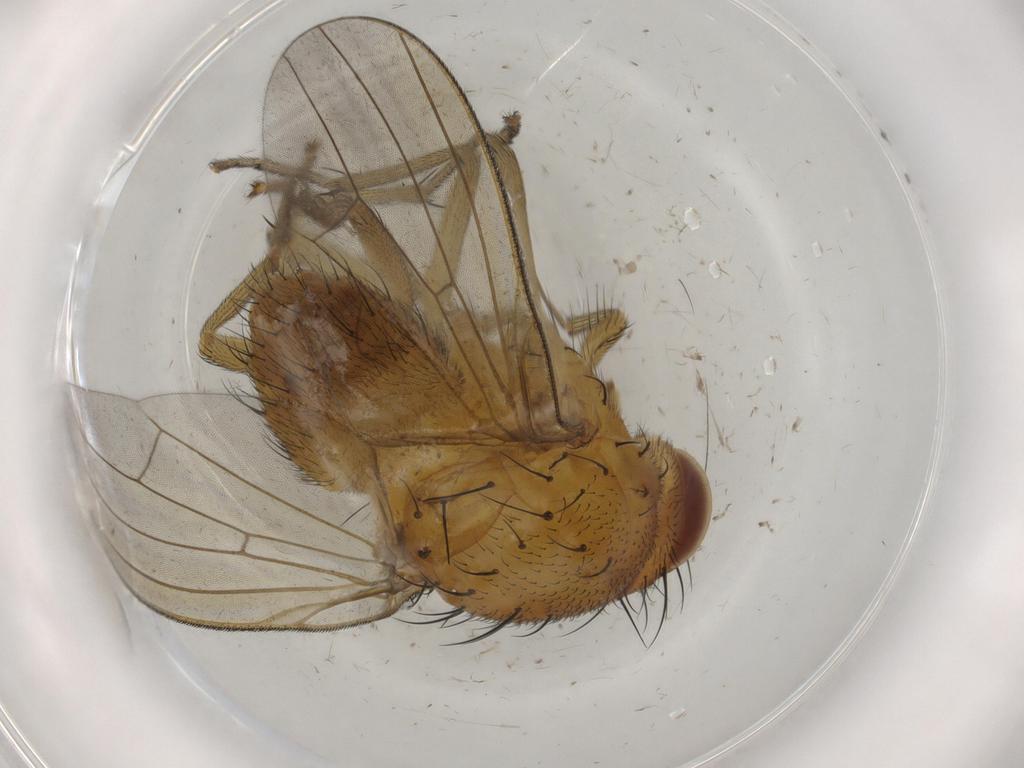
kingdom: Animalia
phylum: Arthropoda
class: Insecta
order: Diptera
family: Cecidomyiidae
